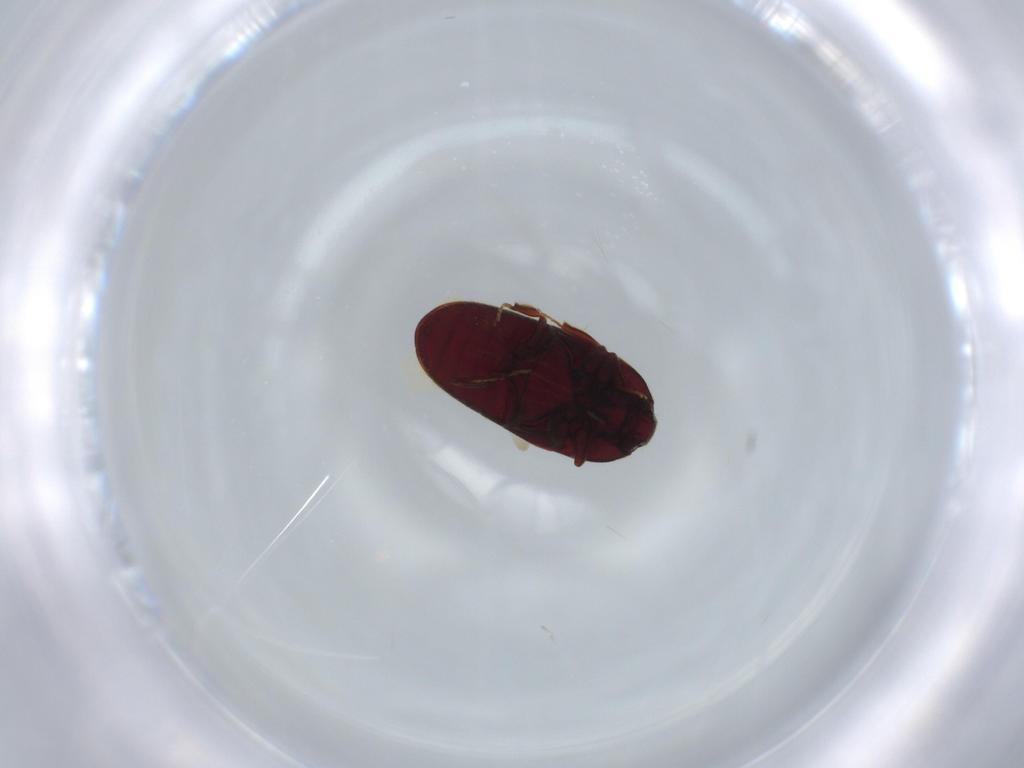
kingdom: Animalia
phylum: Arthropoda
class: Insecta
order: Coleoptera
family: Throscidae
